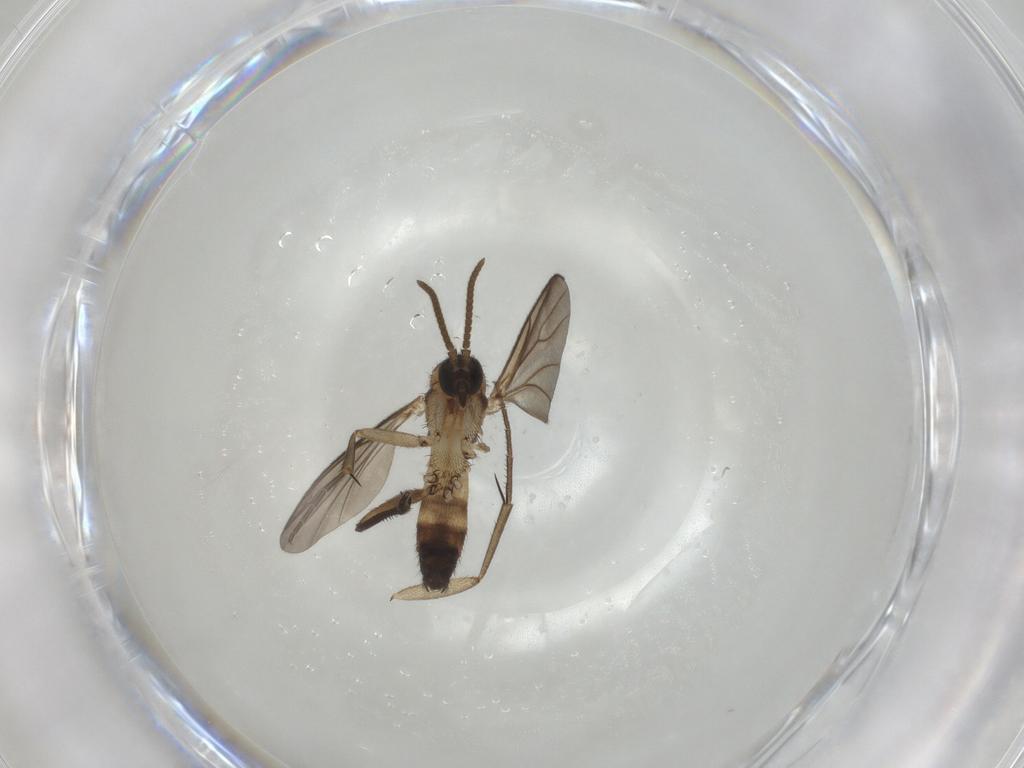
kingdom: Animalia
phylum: Arthropoda
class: Insecta
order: Diptera
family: Mycetophilidae
